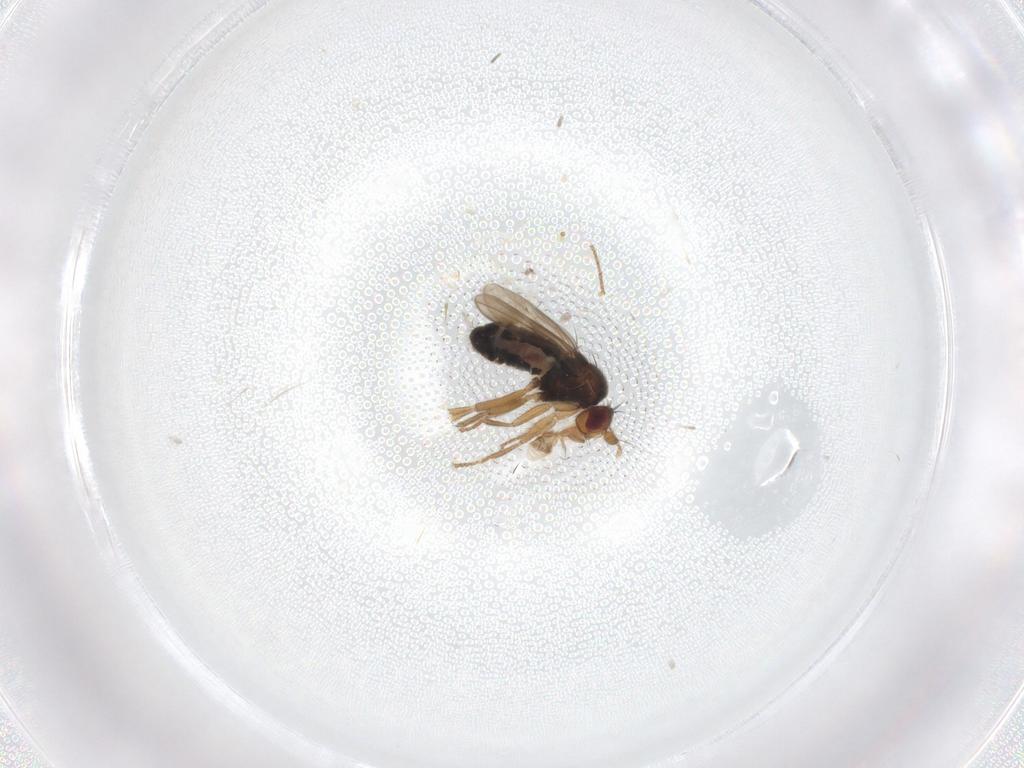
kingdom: Animalia
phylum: Arthropoda
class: Insecta
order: Diptera
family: Sphaeroceridae
